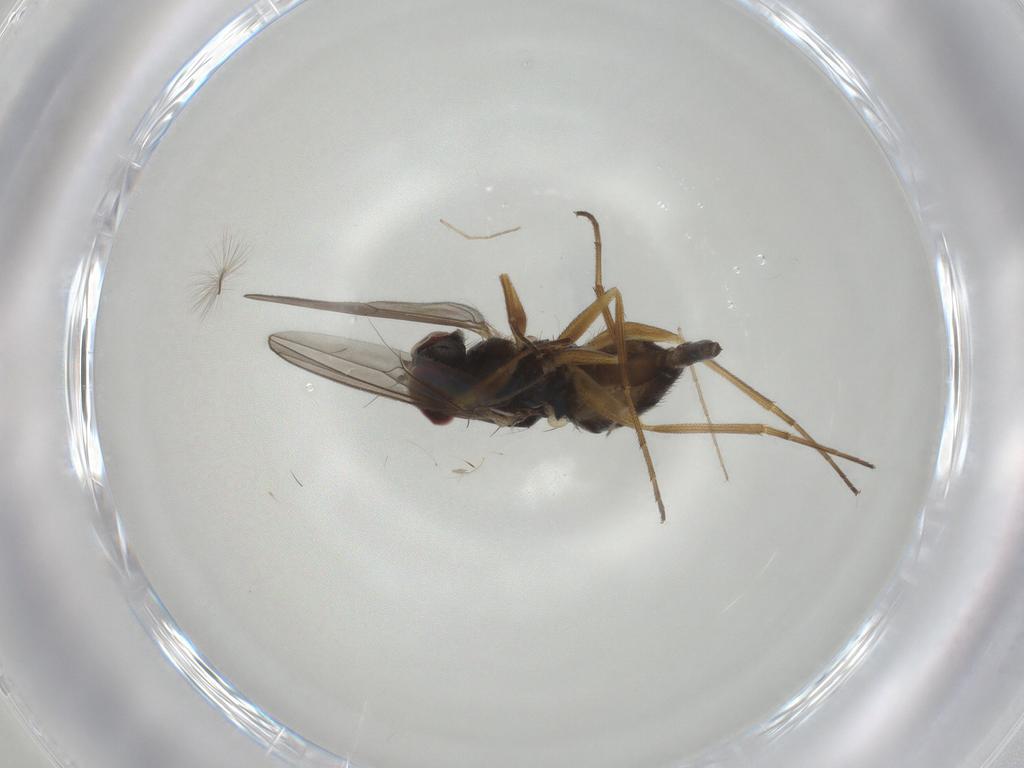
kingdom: Animalia
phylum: Arthropoda
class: Insecta
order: Diptera
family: Dolichopodidae
